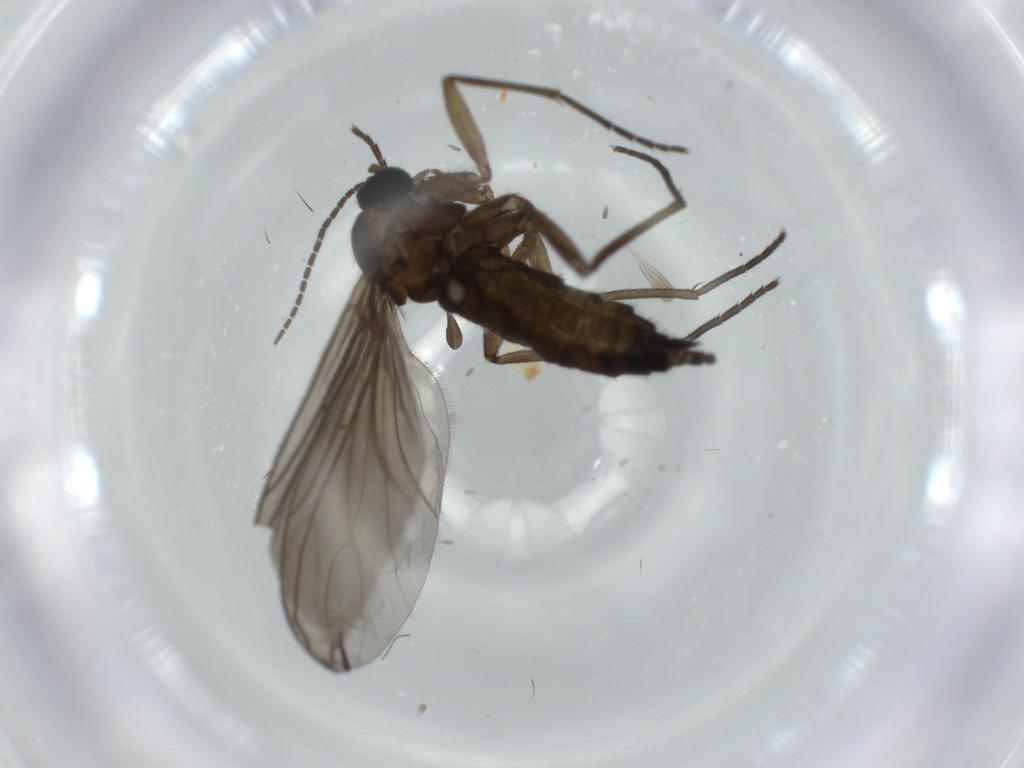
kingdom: Animalia
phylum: Arthropoda
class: Insecta
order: Diptera
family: Sciaridae
